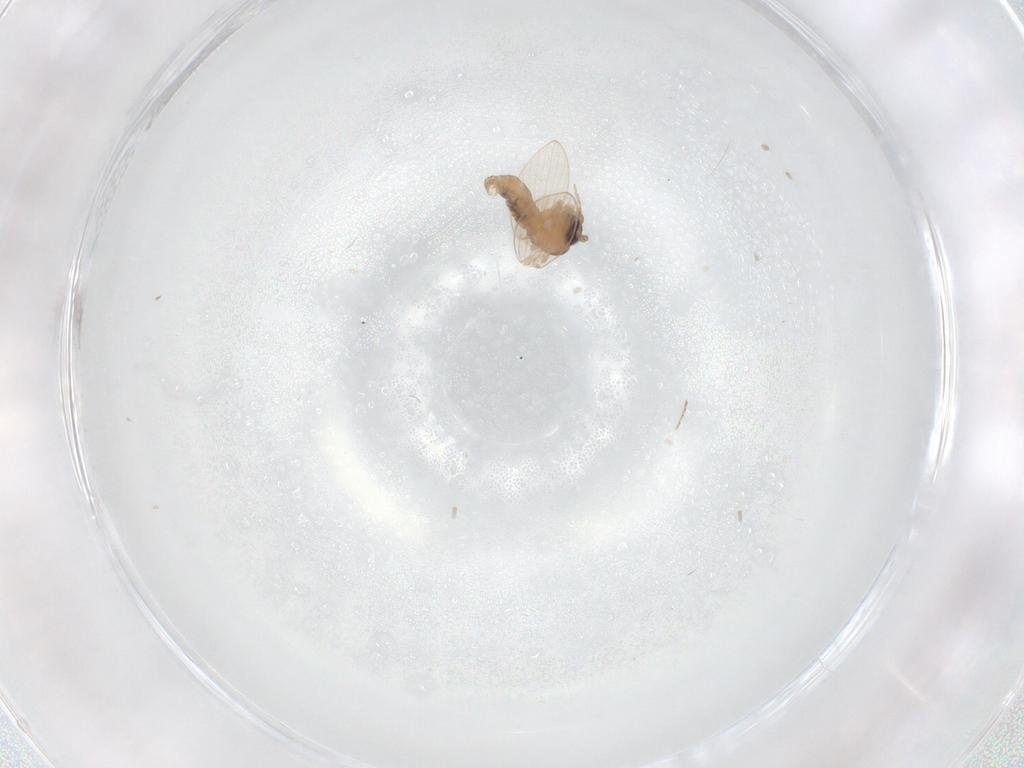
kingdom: Animalia
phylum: Arthropoda
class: Insecta
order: Diptera
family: Psychodidae
